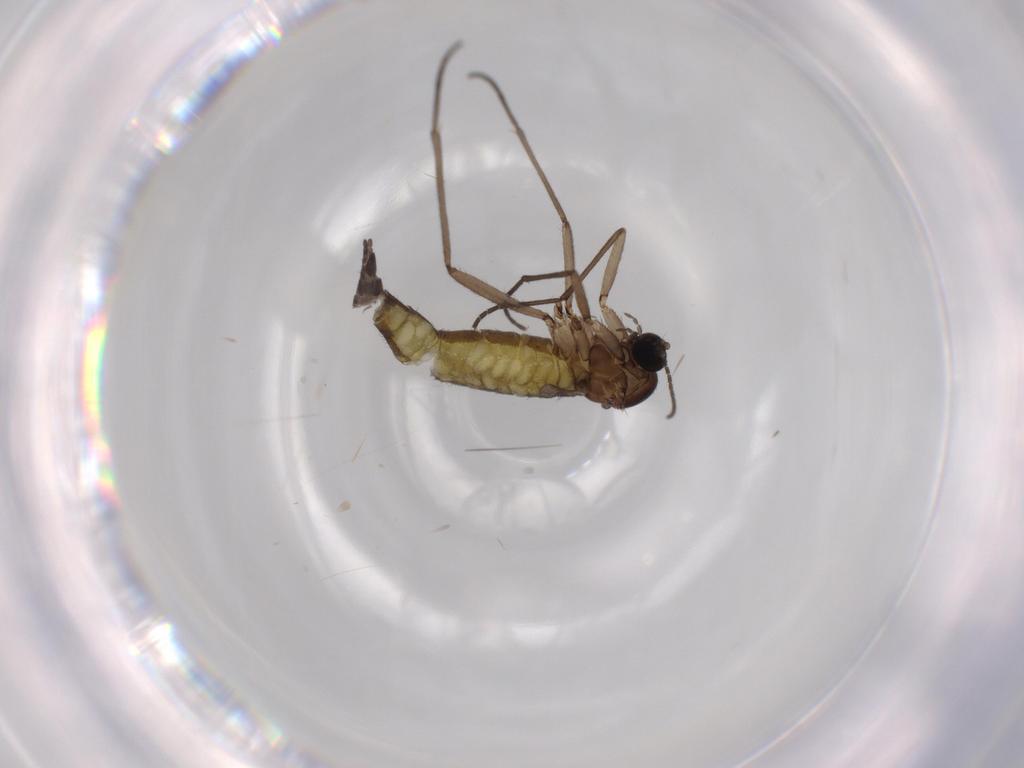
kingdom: Animalia
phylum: Arthropoda
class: Insecta
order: Diptera
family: Sciaridae
